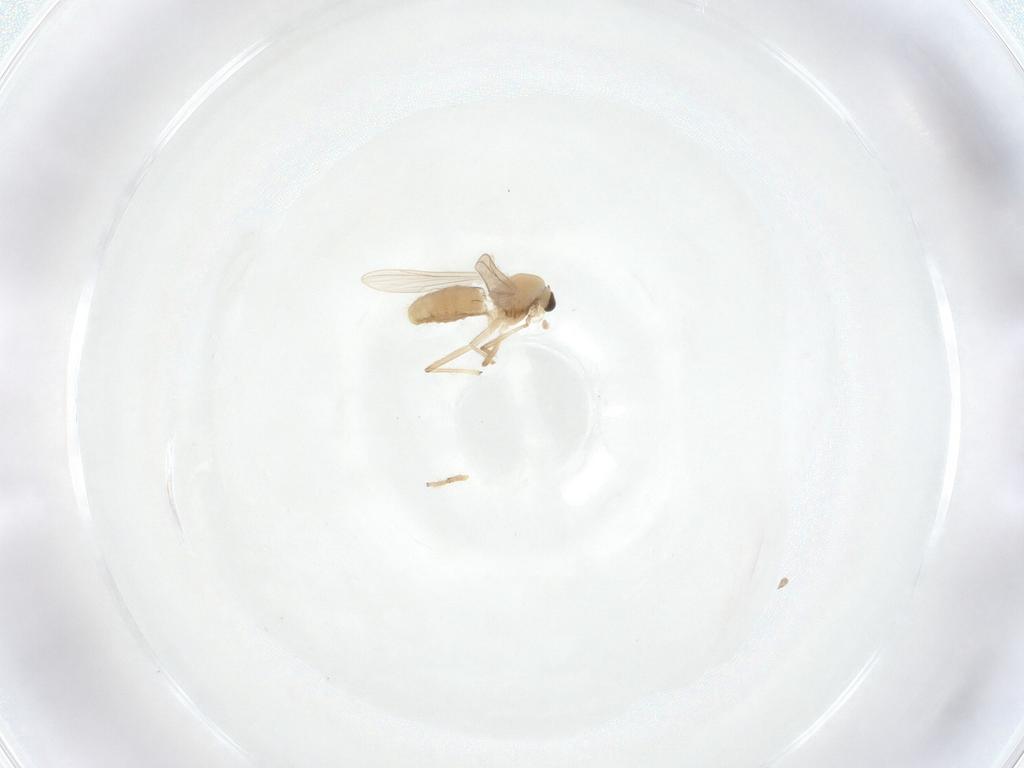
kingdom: Animalia
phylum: Arthropoda
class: Insecta
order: Diptera
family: Chironomidae
